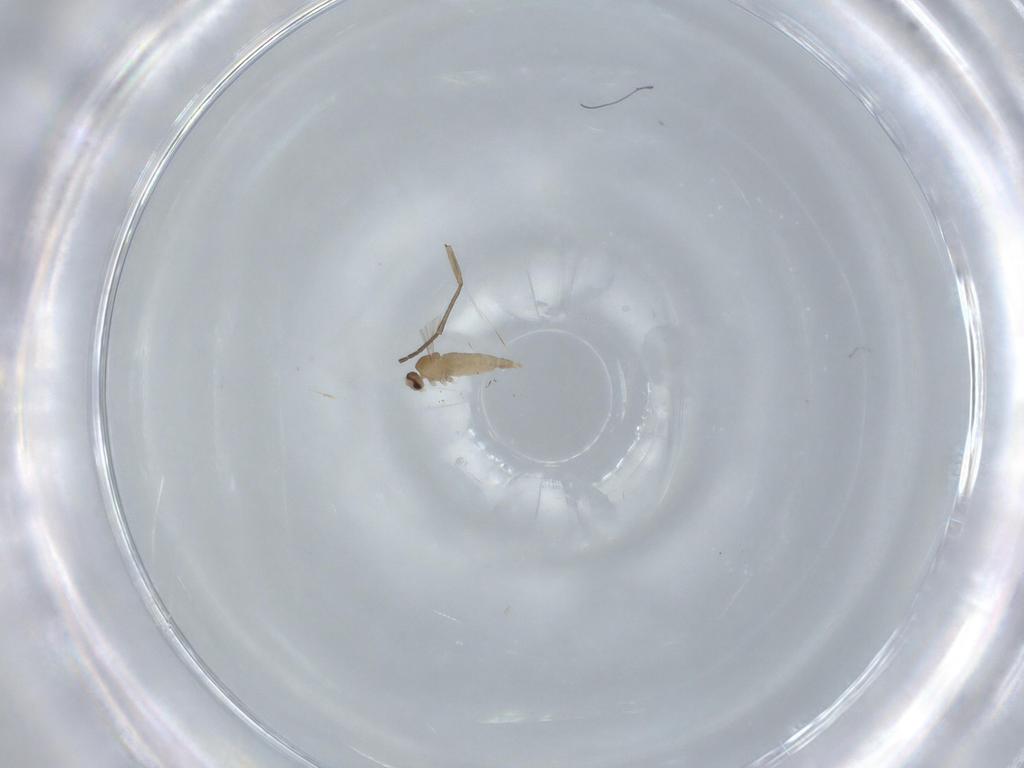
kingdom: Animalia
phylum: Arthropoda
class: Insecta
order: Diptera
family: Cecidomyiidae
